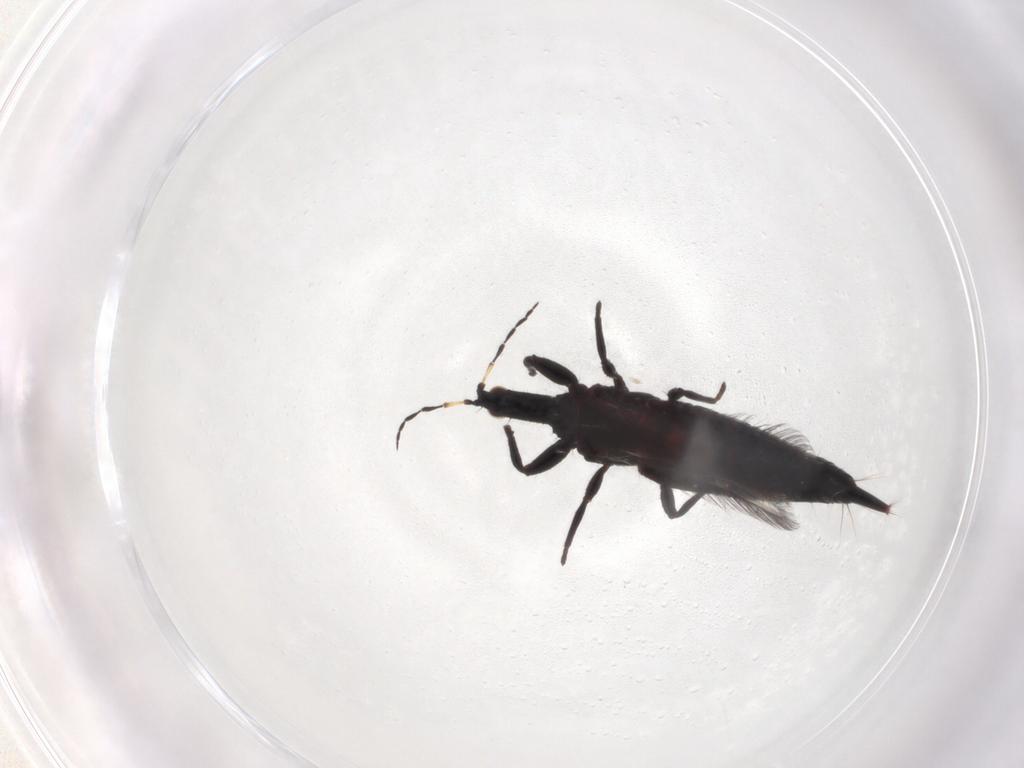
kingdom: Animalia
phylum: Arthropoda
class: Insecta
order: Thysanoptera
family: Phlaeothripidae
